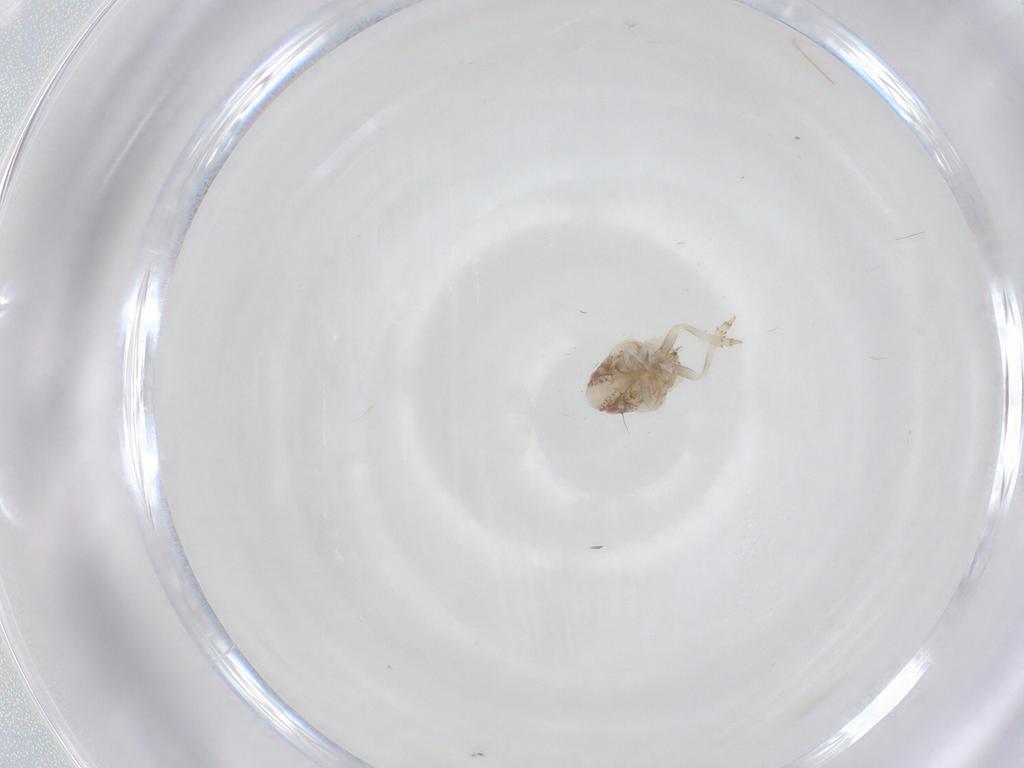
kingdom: Animalia
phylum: Arthropoda
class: Insecta
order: Hemiptera
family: Acanaloniidae
